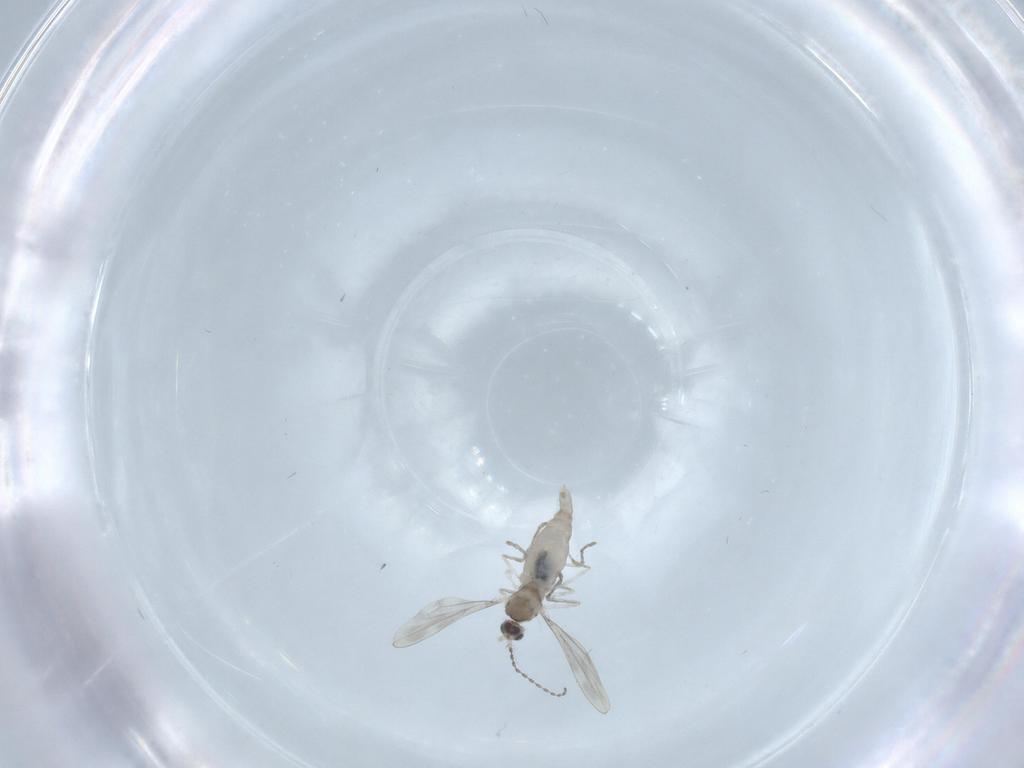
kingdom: Animalia
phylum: Arthropoda
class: Insecta
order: Diptera
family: Cecidomyiidae
